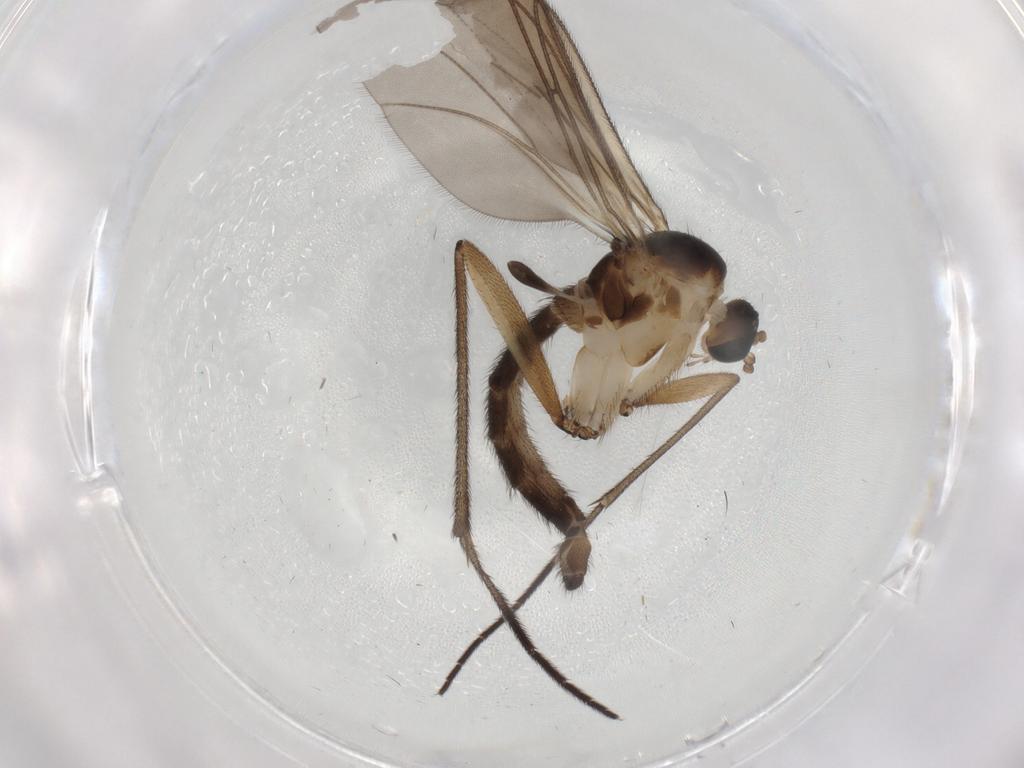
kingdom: Animalia
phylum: Arthropoda
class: Insecta
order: Diptera
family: Sciaridae
